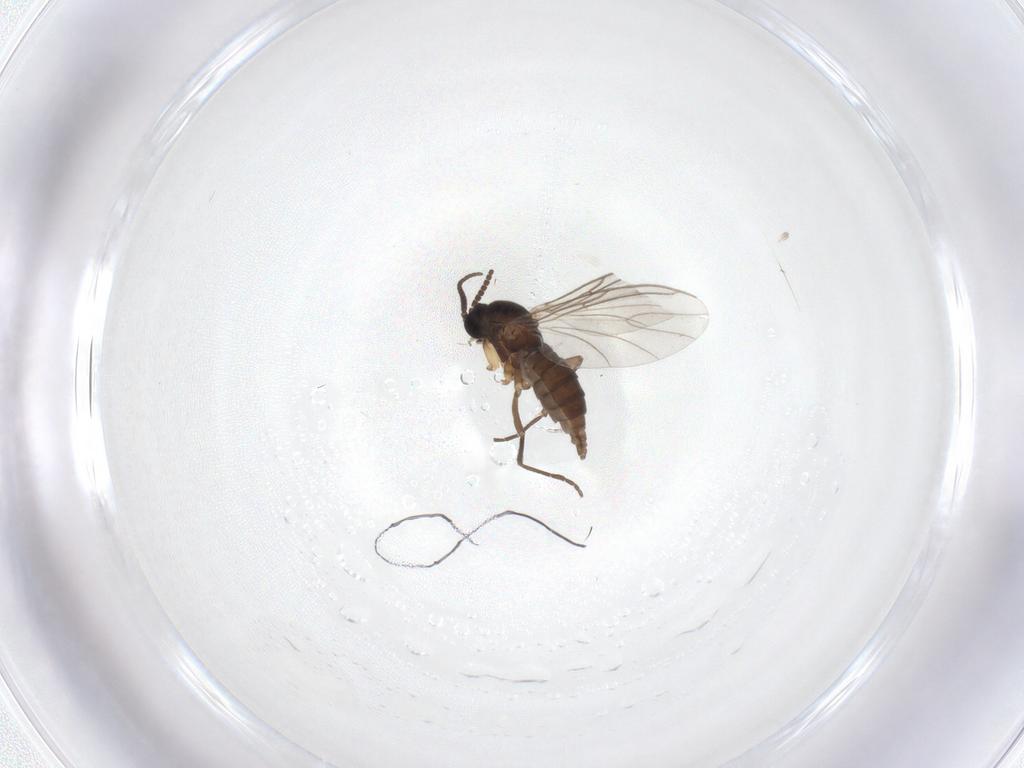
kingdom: Animalia
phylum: Arthropoda
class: Insecta
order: Diptera
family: Sciaridae
